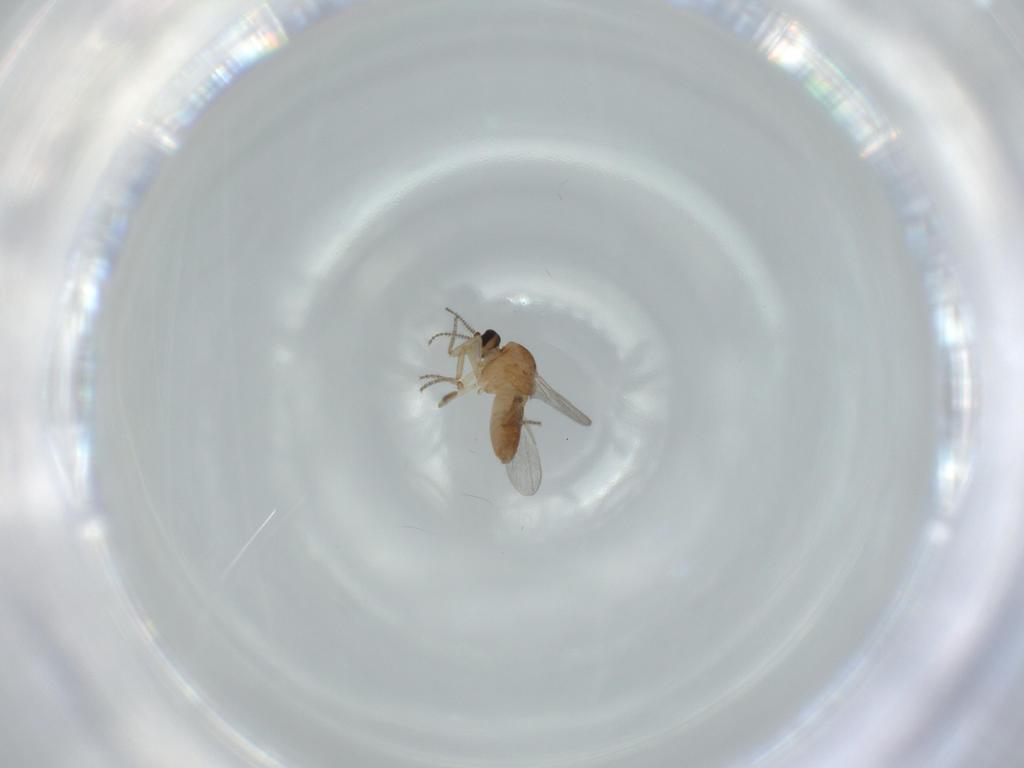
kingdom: Animalia
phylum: Arthropoda
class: Insecta
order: Diptera
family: Ceratopogonidae
